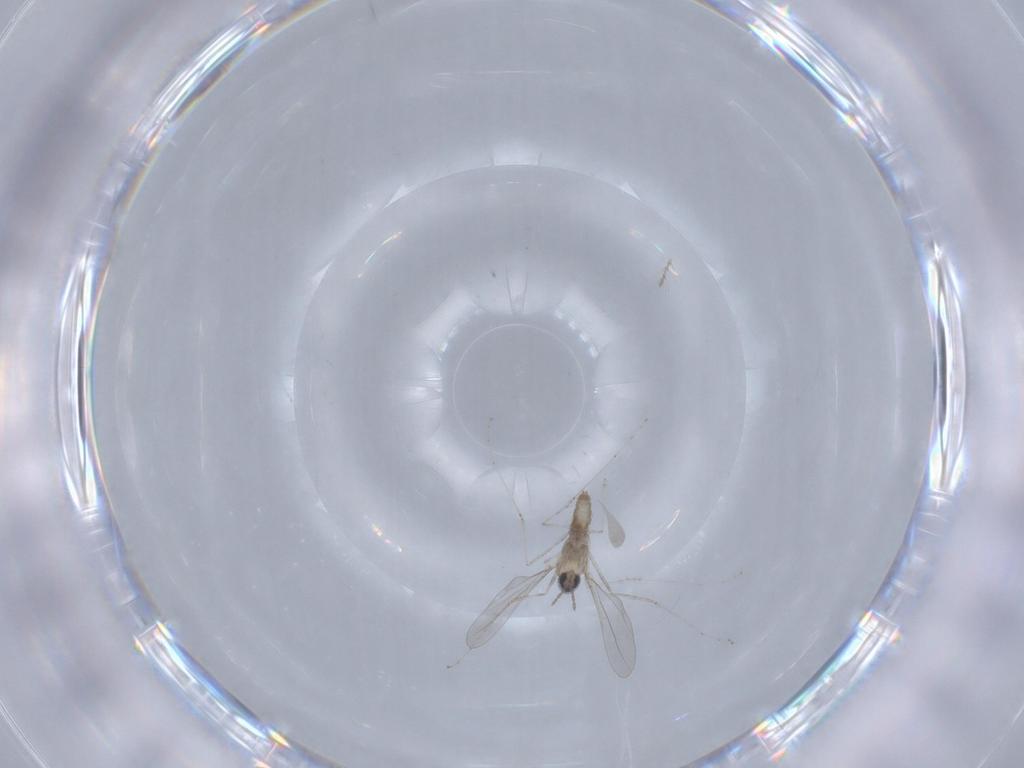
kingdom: Animalia
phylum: Arthropoda
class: Insecta
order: Diptera
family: Cecidomyiidae
